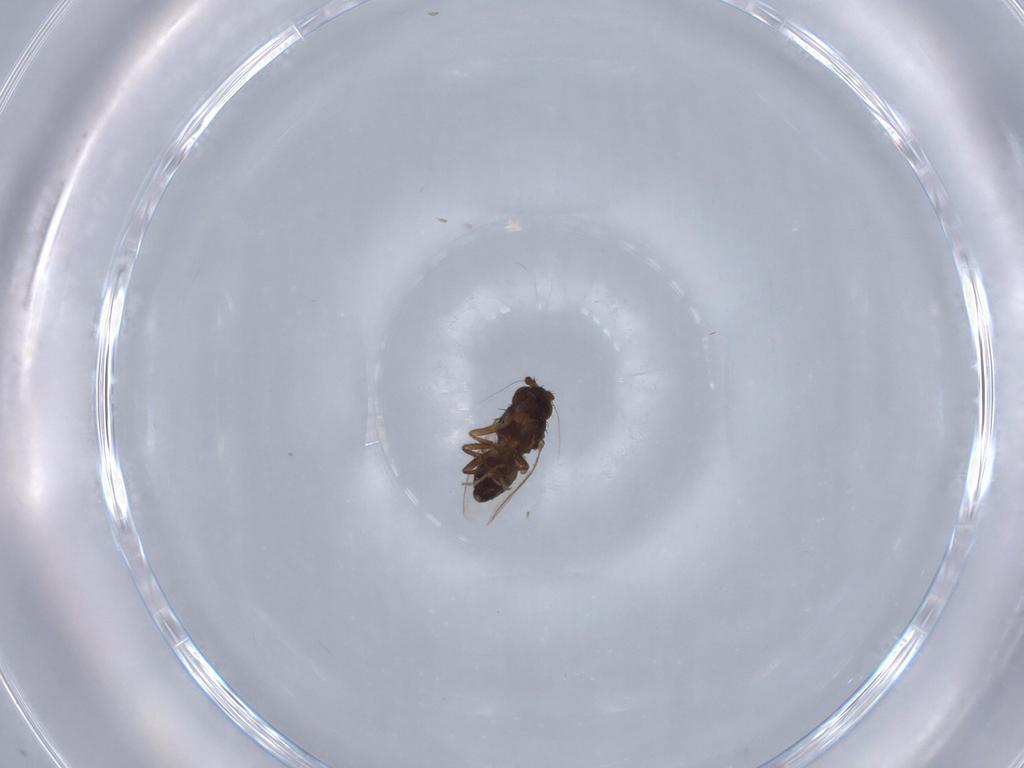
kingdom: Animalia
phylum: Arthropoda
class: Insecta
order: Diptera
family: Sphaeroceridae
